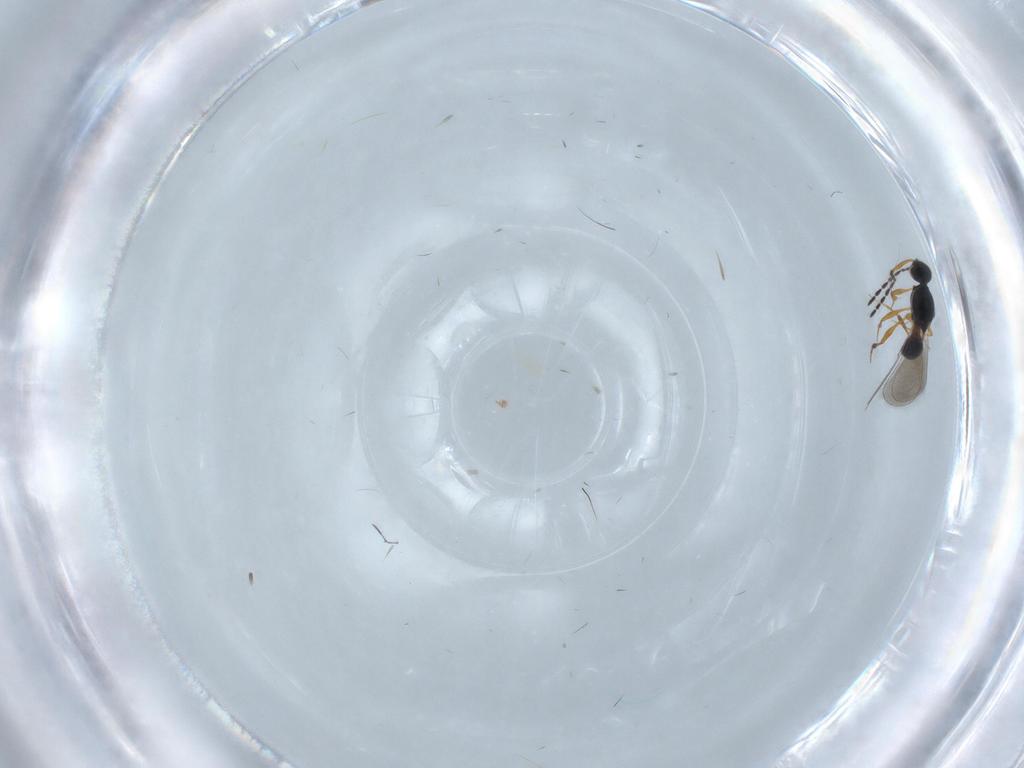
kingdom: Animalia
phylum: Arthropoda
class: Insecta
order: Hymenoptera
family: Platygastridae
